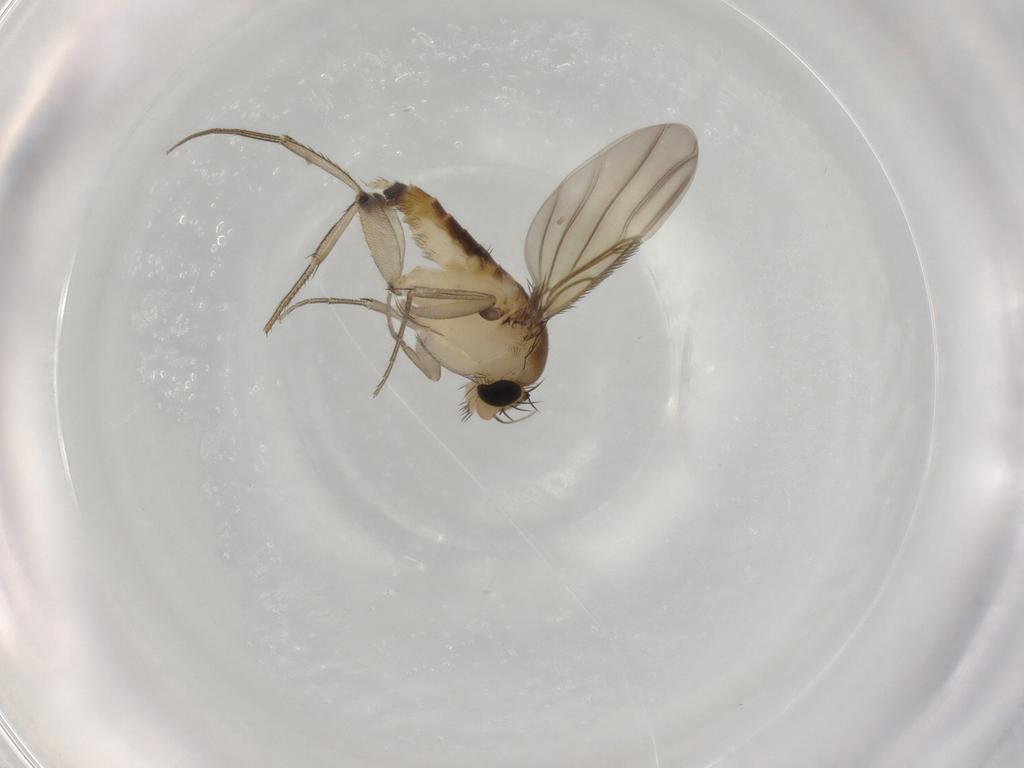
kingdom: Animalia
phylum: Arthropoda
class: Insecta
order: Diptera
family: Phoridae
